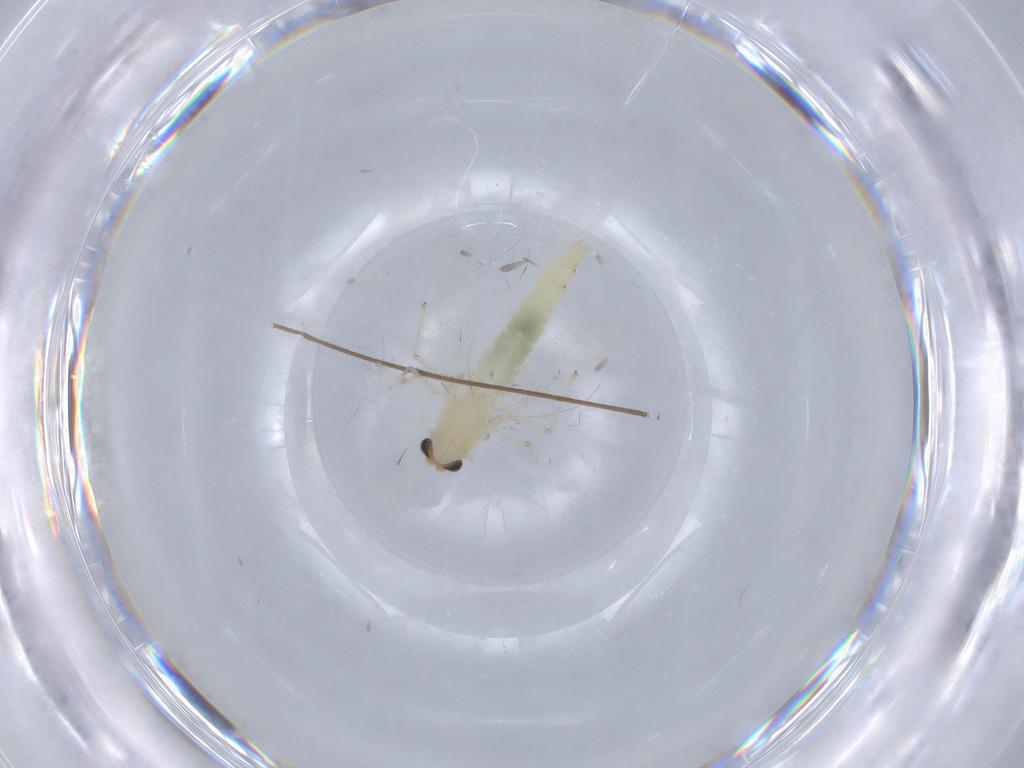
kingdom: Animalia
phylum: Arthropoda
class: Insecta
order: Diptera
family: Chironomidae
